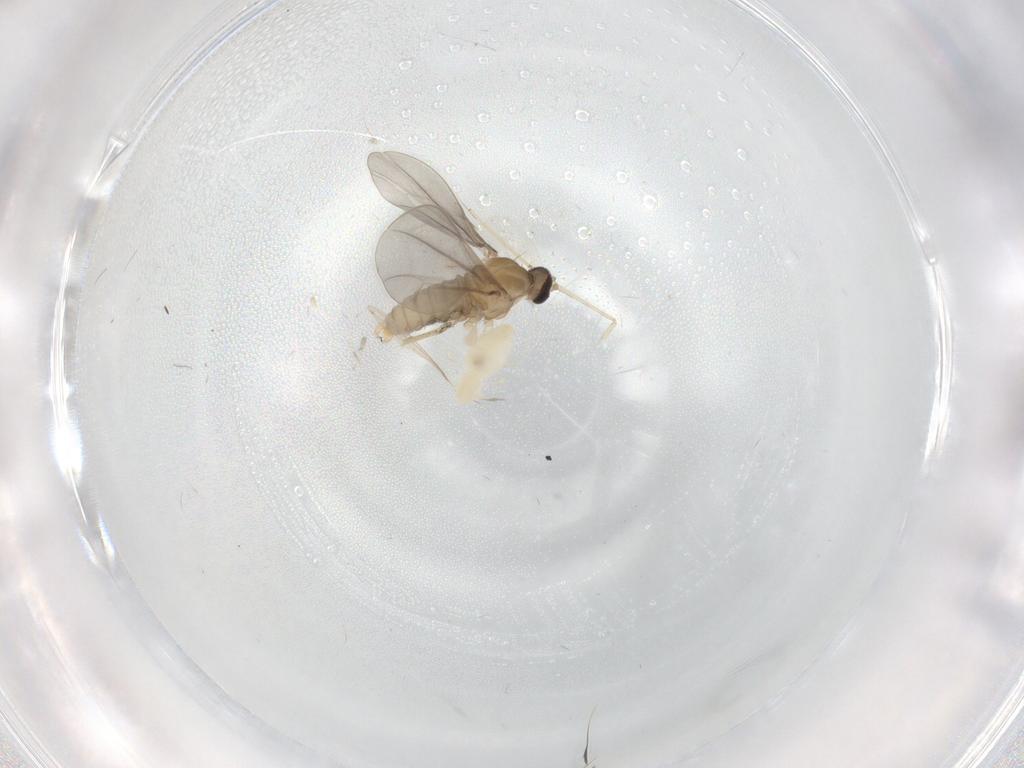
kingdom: Animalia
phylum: Arthropoda
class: Insecta
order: Diptera
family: Cecidomyiidae
